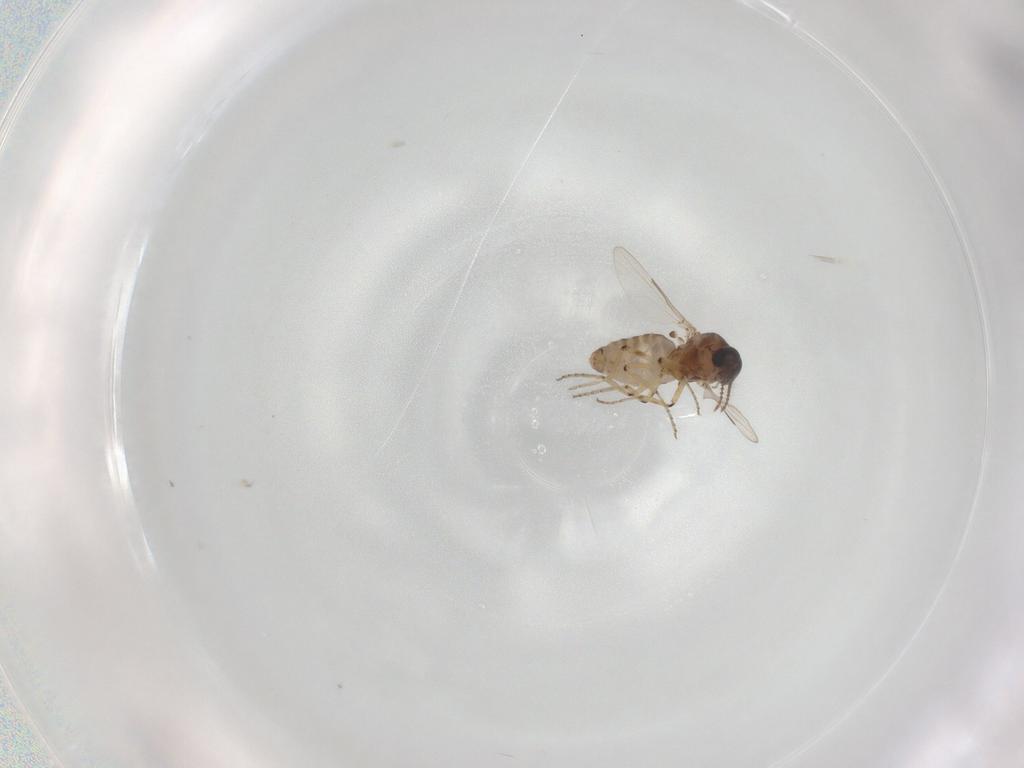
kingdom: Animalia
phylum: Arthropoda
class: Insecta
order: Diptera
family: Ceratopogonidae
